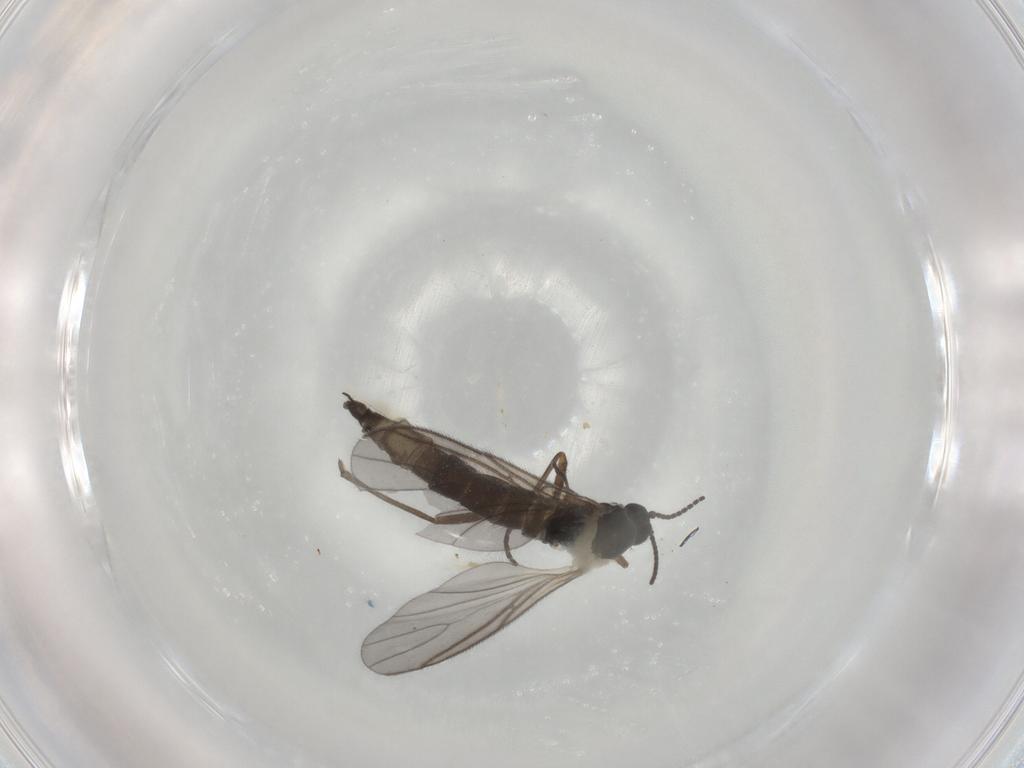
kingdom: Animalia
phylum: Arthropoda
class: Insecta
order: Diptera
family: Sciaridae
